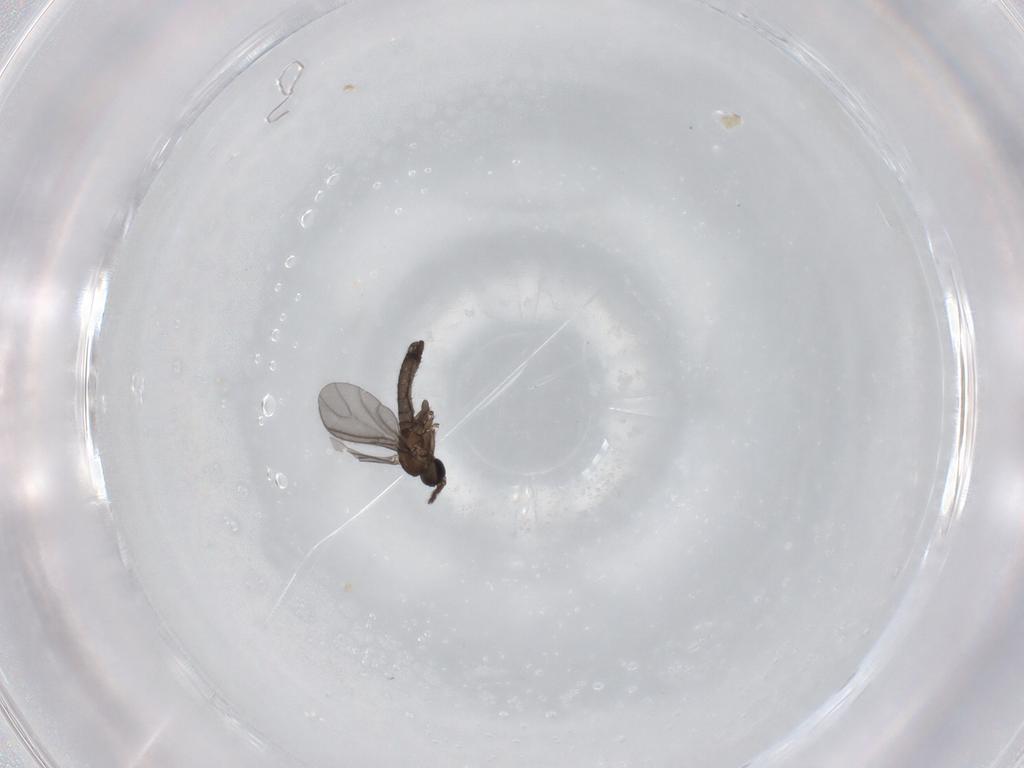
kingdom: Animalia
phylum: Arthropoda
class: Insecta
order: Diptera
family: Sciaridae
